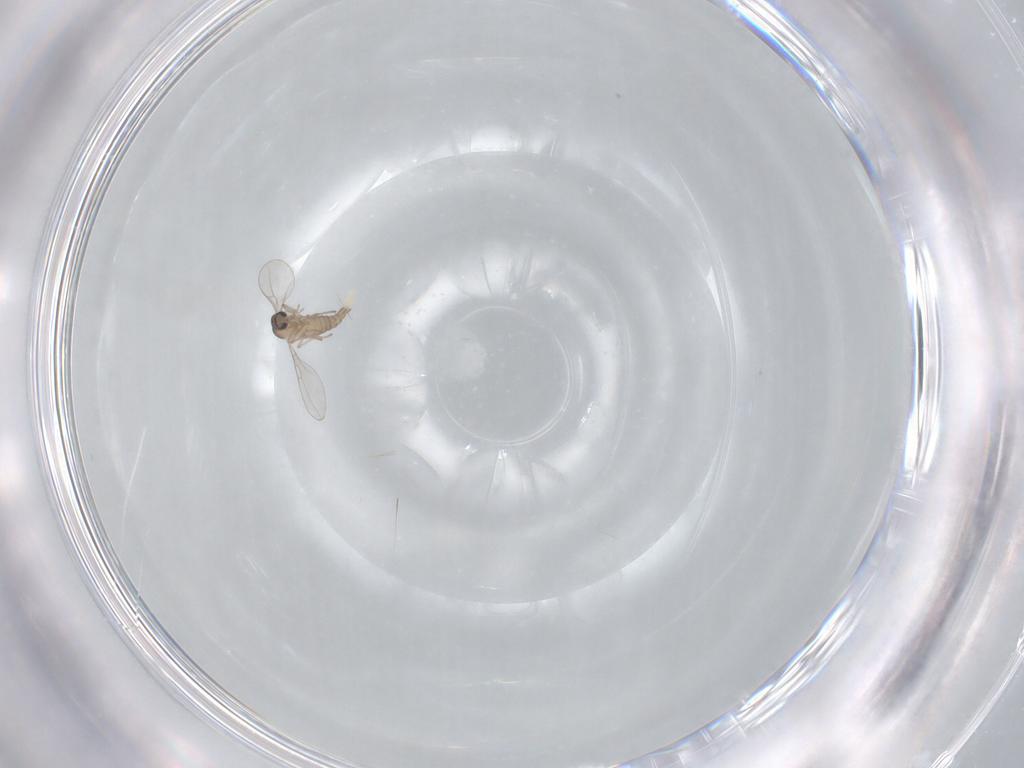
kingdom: Animalia
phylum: Arthropoda
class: Insecta
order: Diptera
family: Cecidomyiidae
